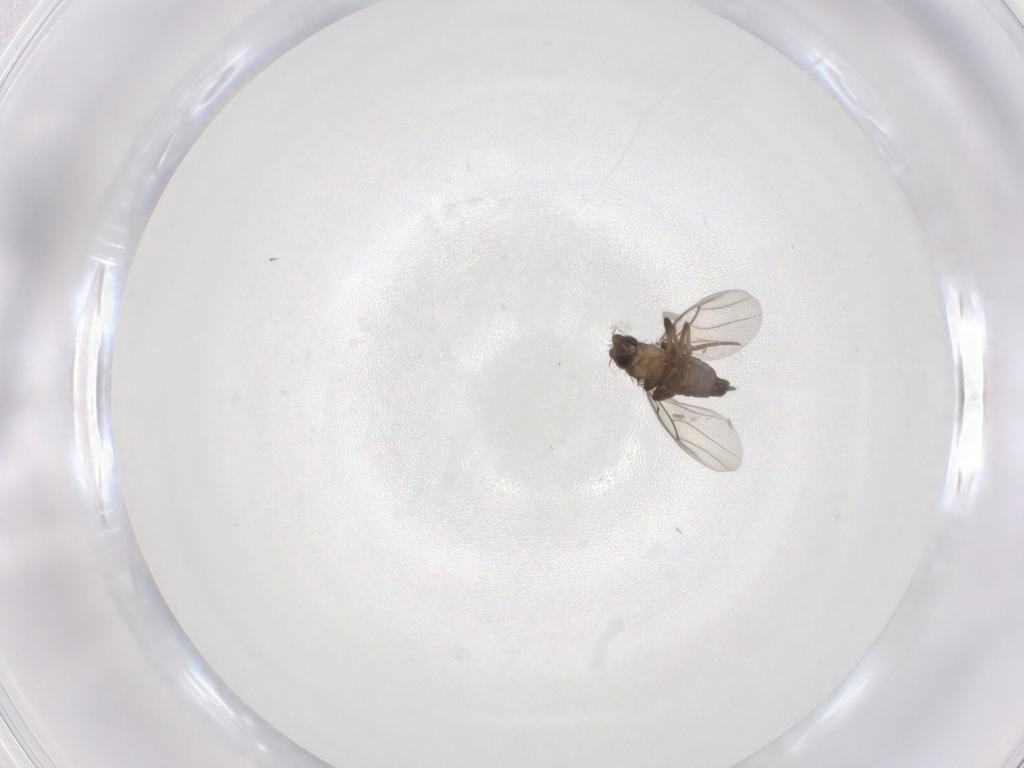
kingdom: Animalia
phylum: Arthropoda
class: Insecta
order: Diptera
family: Phoridae
